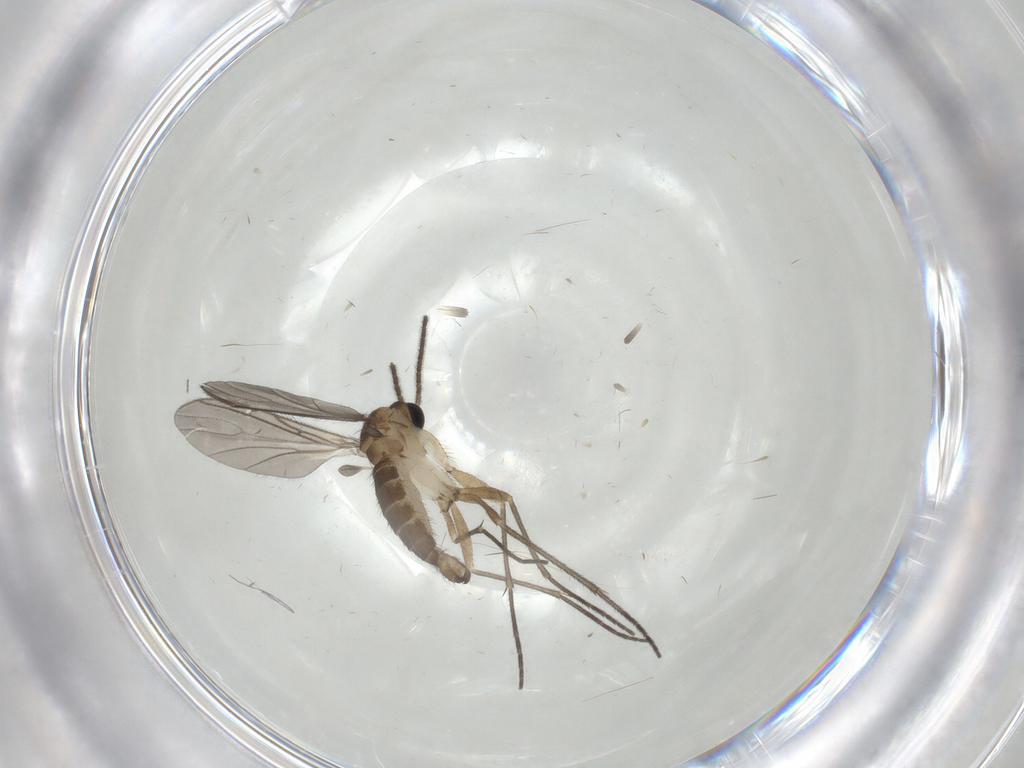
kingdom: Animalia
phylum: Arthropoda
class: Insecta
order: Diptera
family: Sciaridae
